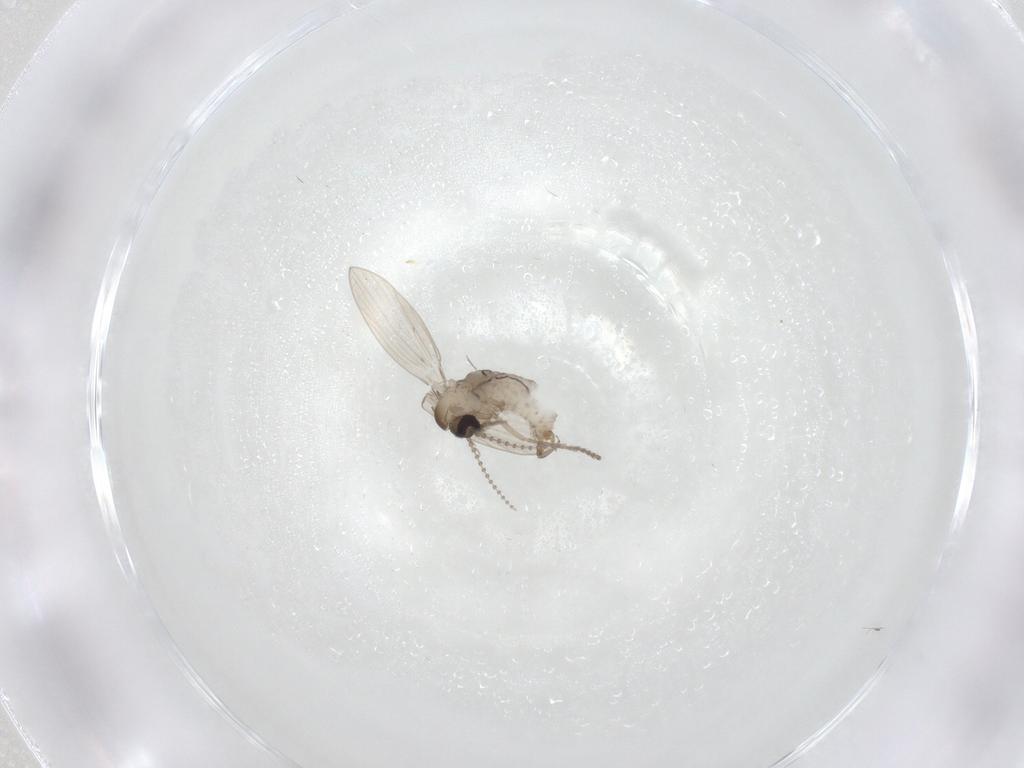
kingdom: Animalia
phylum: Arthropoda
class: Insecta
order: Diptera
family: Psychodidae
